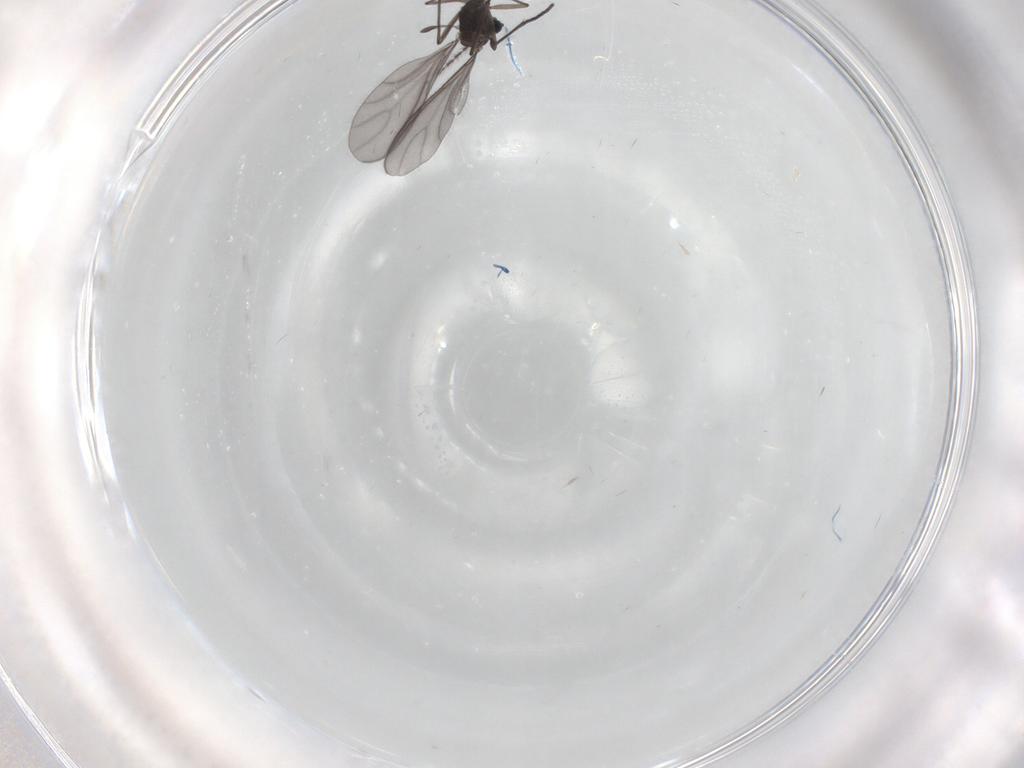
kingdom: Animalia
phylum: Arthropoda
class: Insecta
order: Diptera
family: Sciaridae
